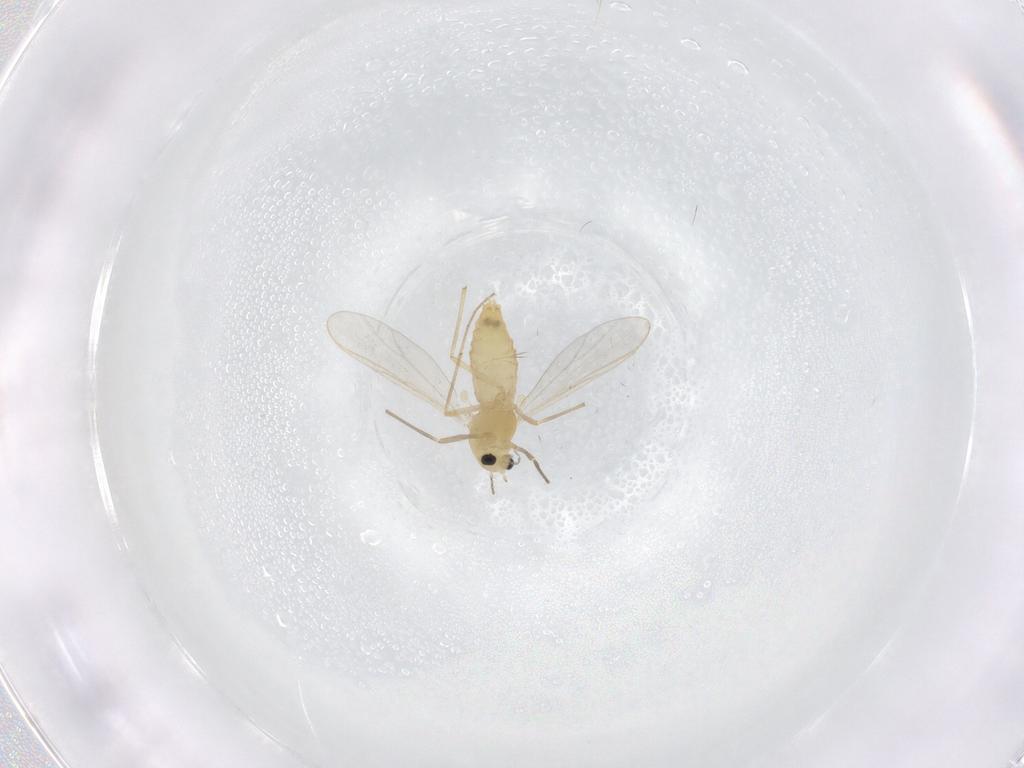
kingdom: Animalia
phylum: Arthropoda
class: Insecta
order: Diptera
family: Chironomidae
